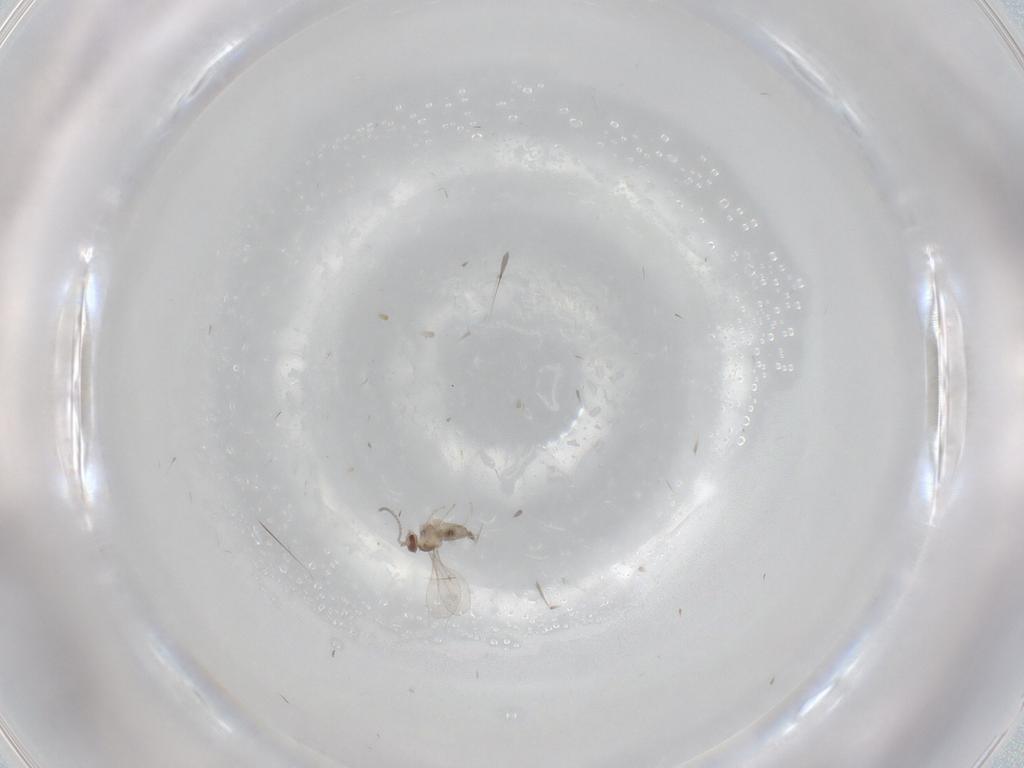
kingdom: Animalia
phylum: Arthropoda
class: Insecta
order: Diptera
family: Cecidomyiidae
